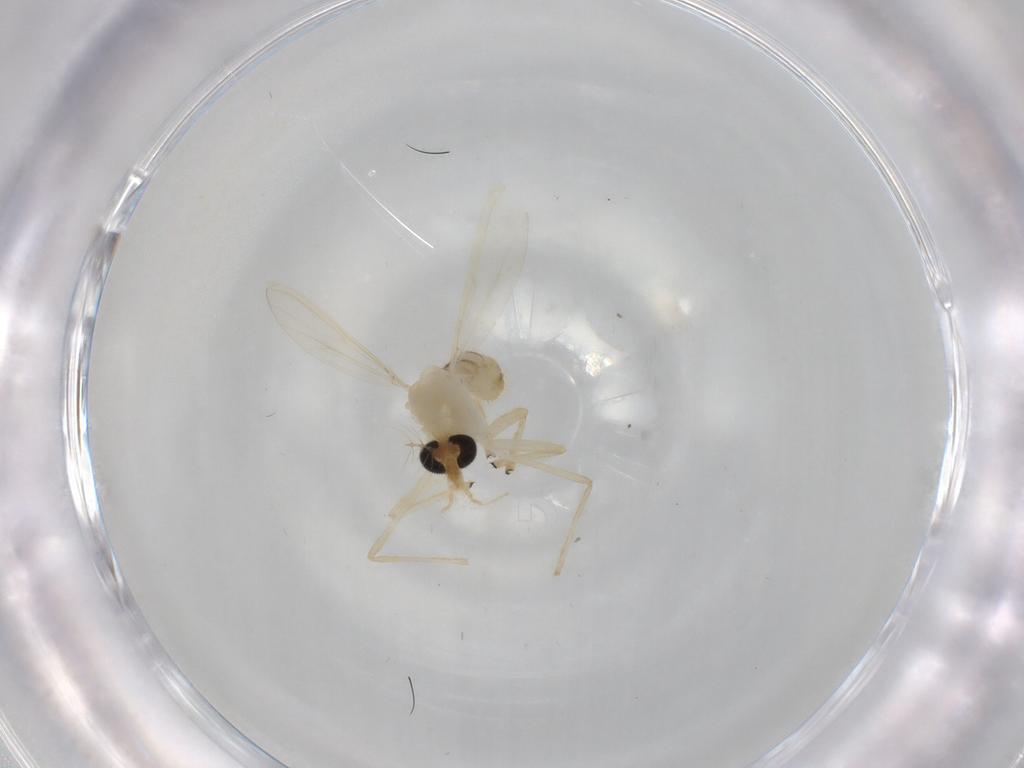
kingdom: Animalia
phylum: Arthropoda
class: Insecta
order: Diptera
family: Chironomidae
